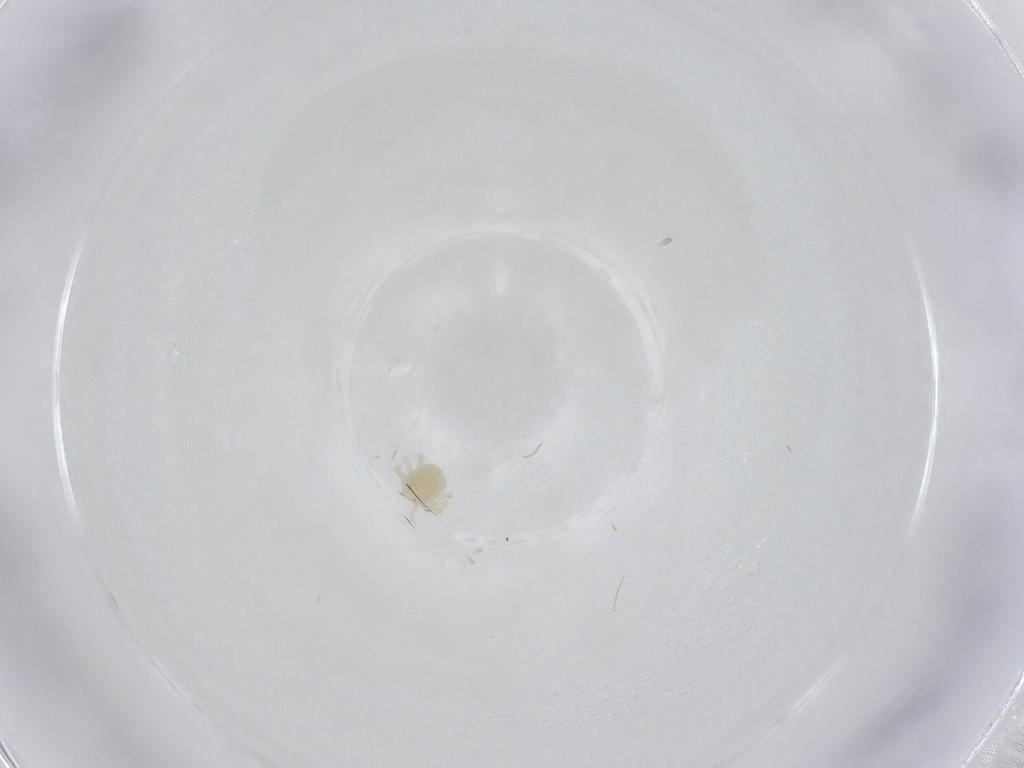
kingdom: Animalia
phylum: Arthropoda
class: Arachnida
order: Trombidiformes
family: Anystidae
